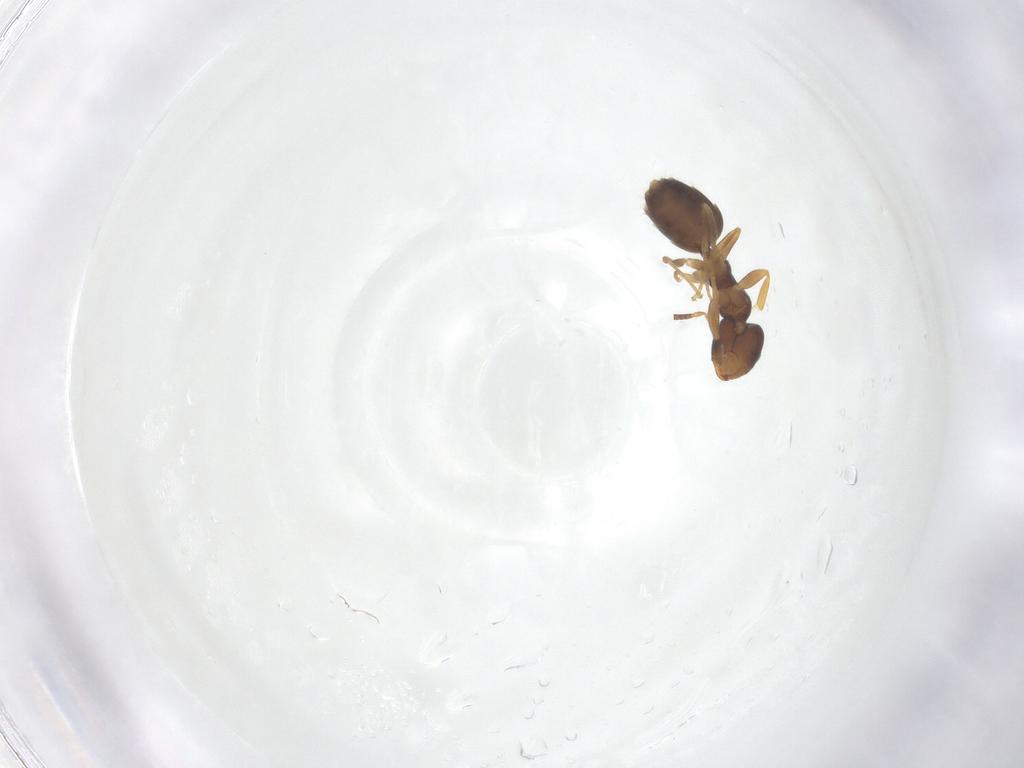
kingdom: Animalia
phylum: Arthropoda
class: Insecta
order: Hymenoptera
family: Formicidae
